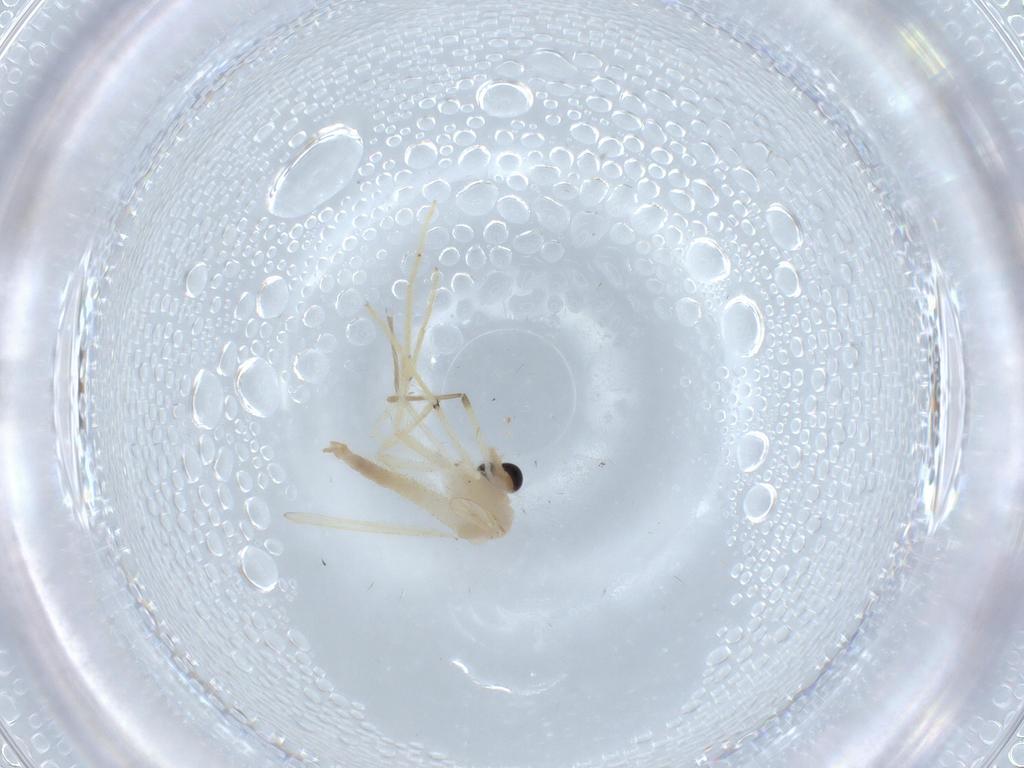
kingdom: Animalia
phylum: Arthropoda
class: Insecta
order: Diptera
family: Chironomidae
